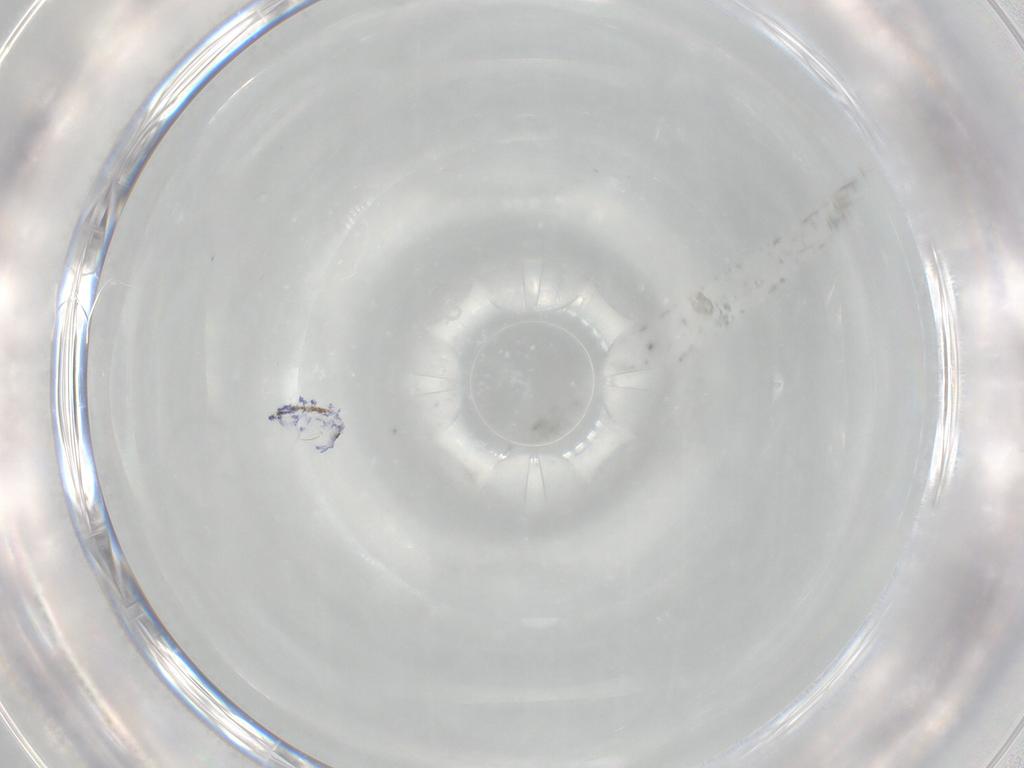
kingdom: Animalia
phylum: Arthropoda
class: Collembola
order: Entomobryomorpha
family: Entomobryidae
